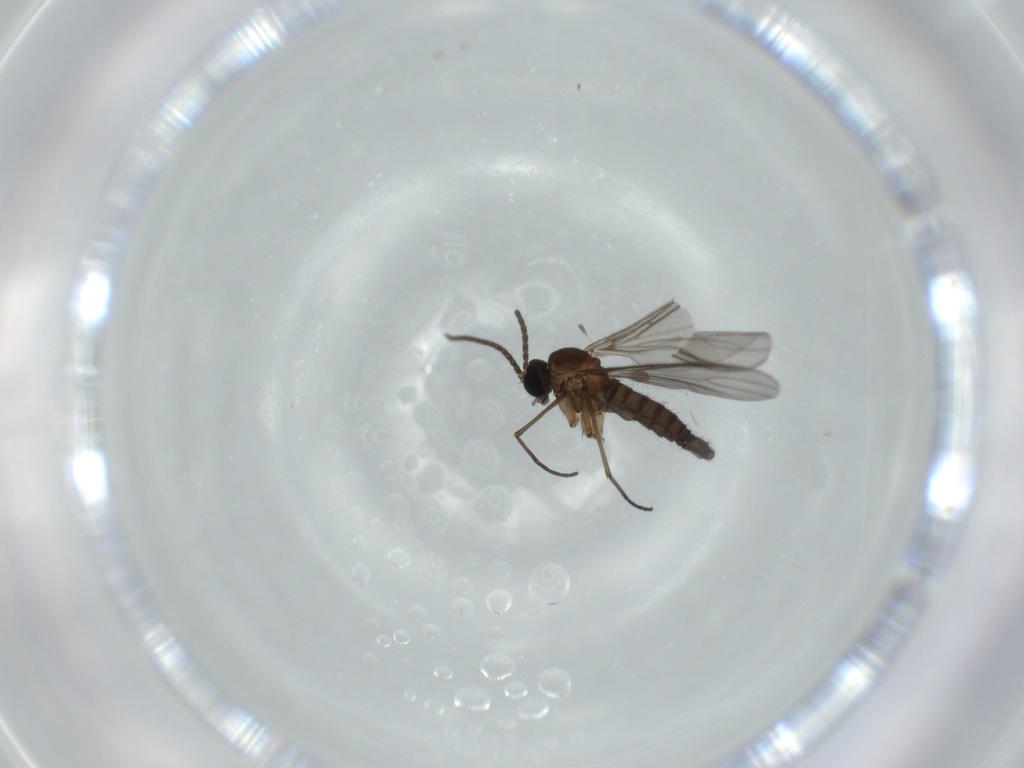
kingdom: Animalia
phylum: Arthropoda
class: Insecta
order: Diptera
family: Sciaridae
